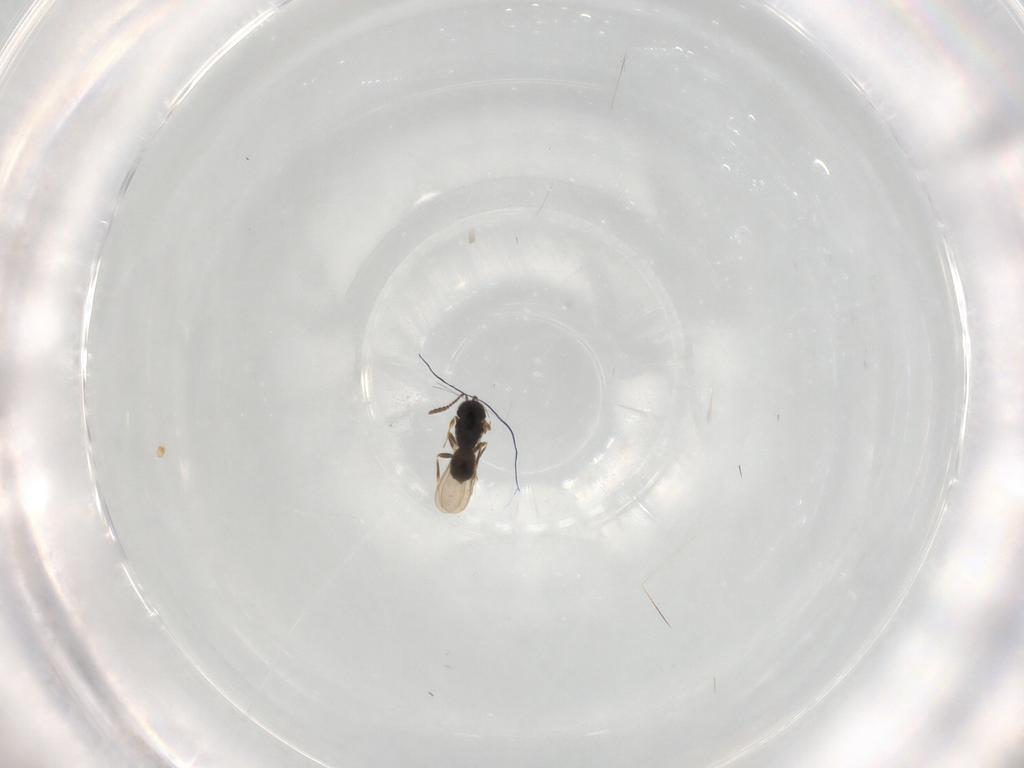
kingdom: Animalia
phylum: Arthropoda
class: Insecta
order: Hymenoptera
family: Scelionidae
